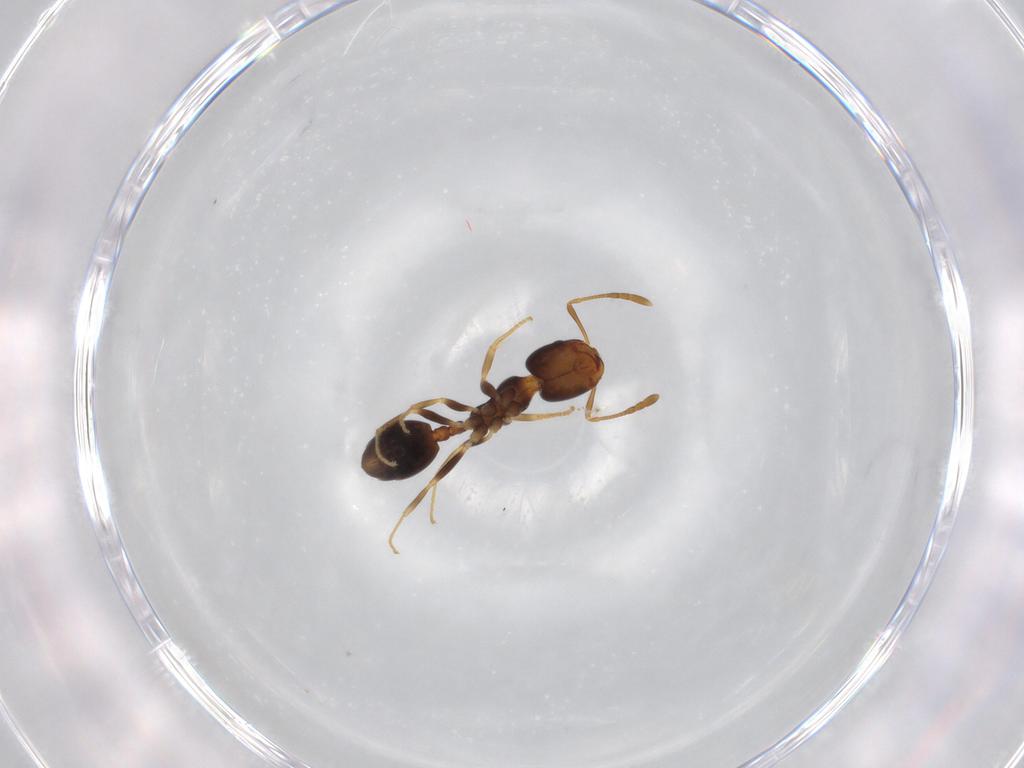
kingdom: Animalia
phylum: Arthropoda
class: Insecta
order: Hymenoptera
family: Formicidae
